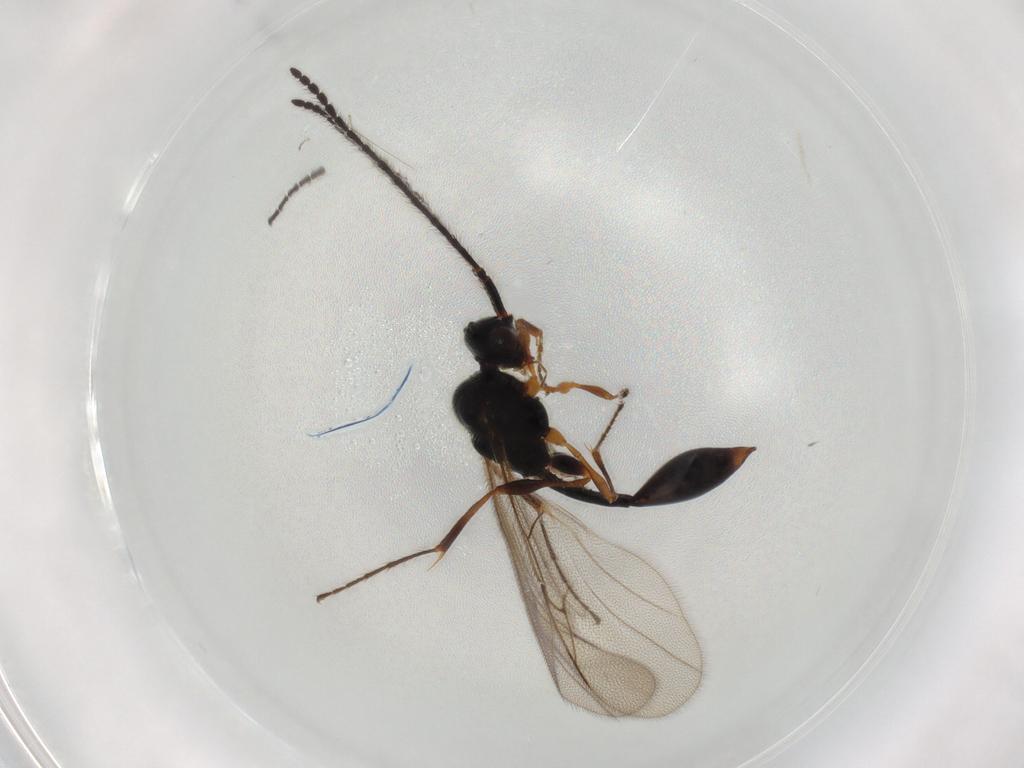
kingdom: Animalia
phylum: Arthropoda
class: Insecta
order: Hymenoptera
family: Diapriidae
